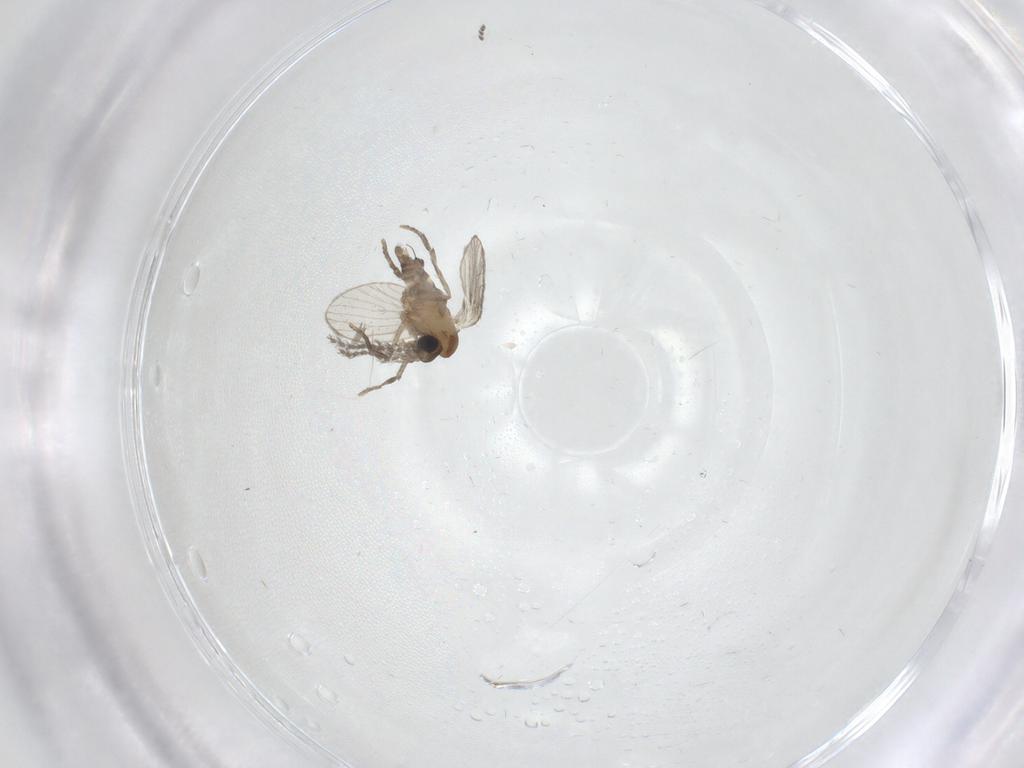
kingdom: Animalia
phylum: Arthropoda
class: Insecta
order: Diptera
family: Cecidomyiidae
